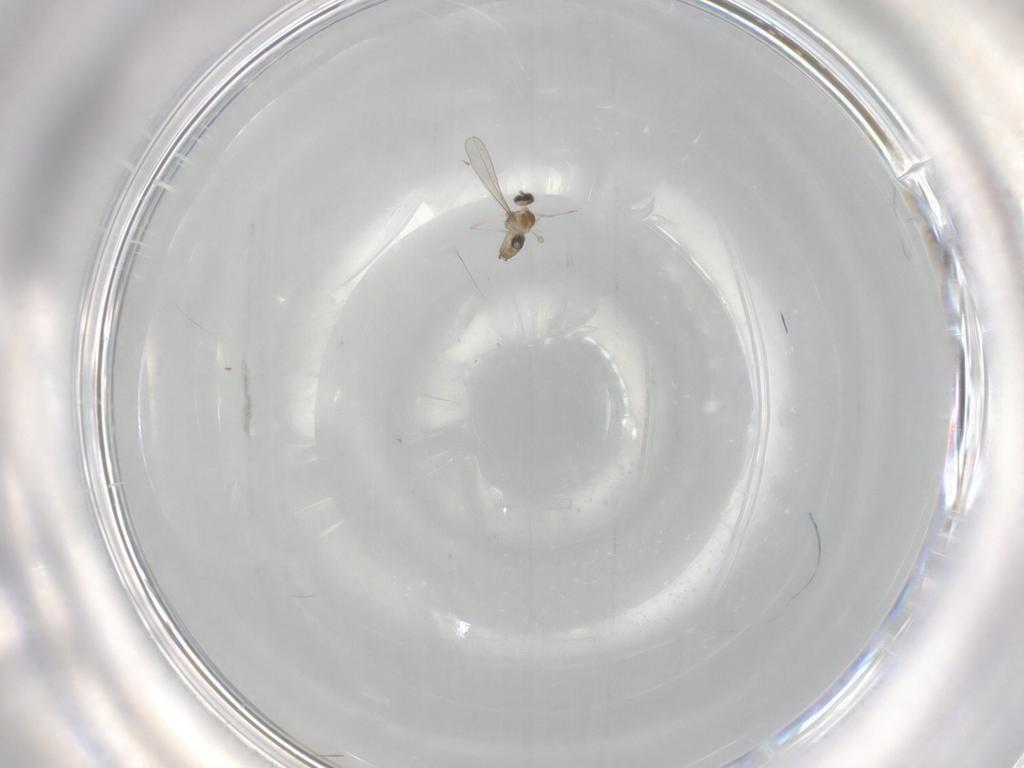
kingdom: Animalia
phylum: Arthropoda
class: Insecta
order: Diptera
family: Cecidomyiidae
